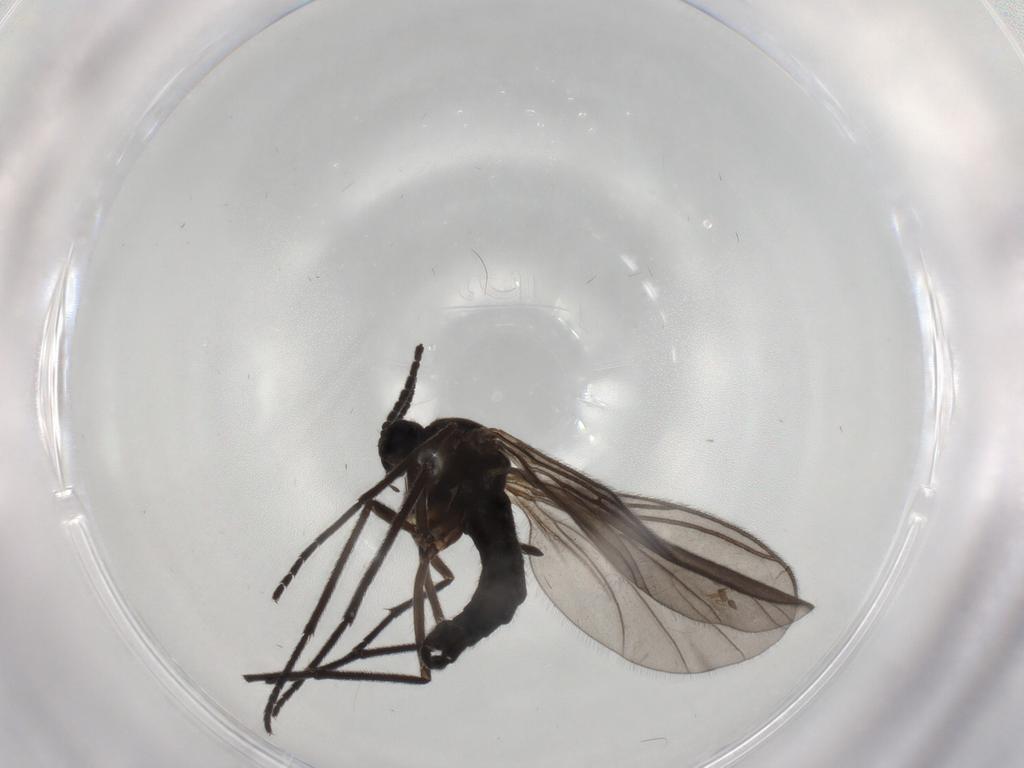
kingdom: Animalia
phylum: Arthropoda
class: Insecta
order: Diptera
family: Sciaridae
